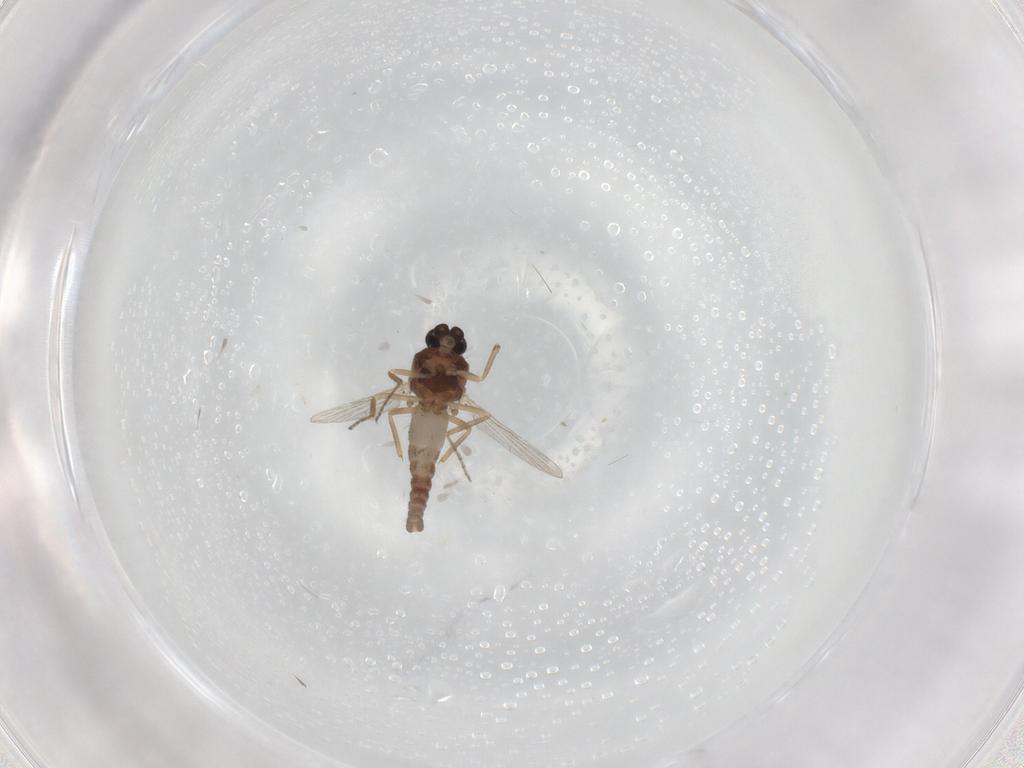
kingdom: Animalia
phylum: Arthropoda
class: Insecta
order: Diptera
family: Ceratopogonidae
